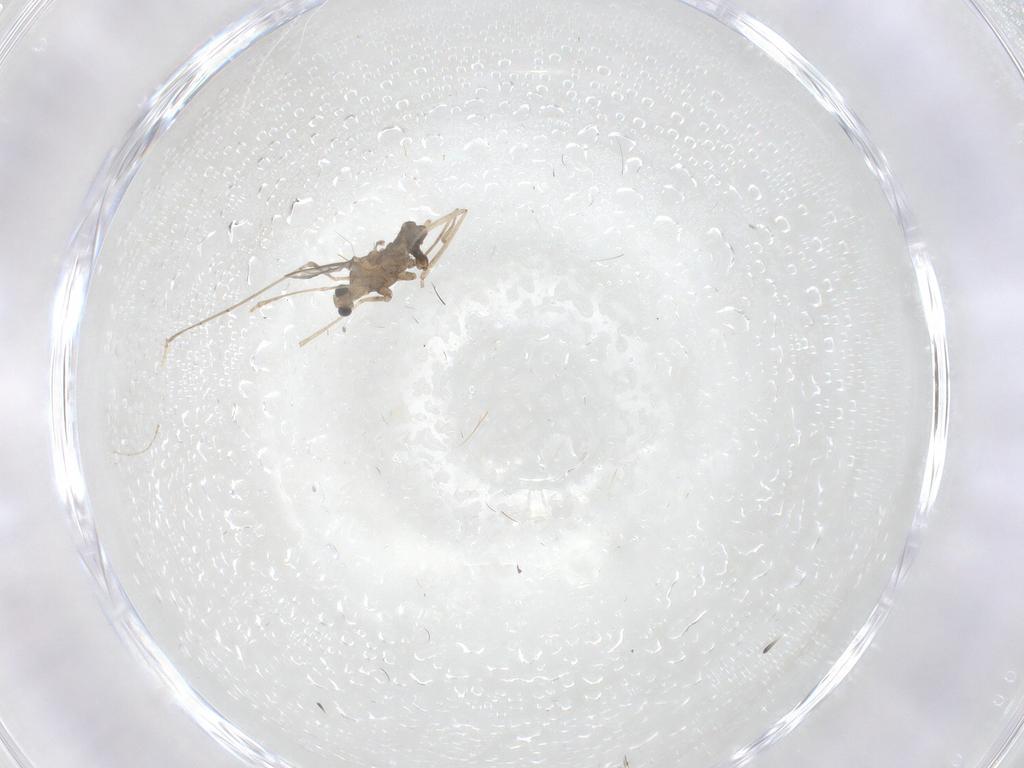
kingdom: Animalia
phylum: Arthropoda
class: Insecta
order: Diptera
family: Cecidomyiidae
